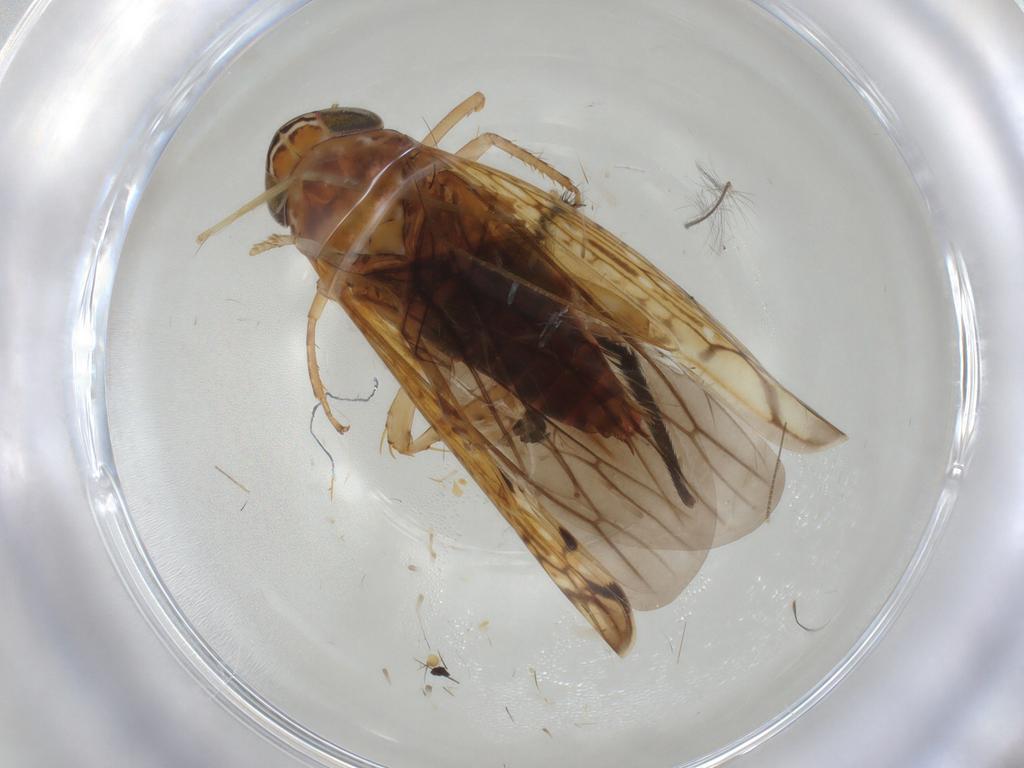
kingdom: Animalia
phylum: Arthropoda
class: Insecta
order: Hemiptera
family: Cicadellidae
